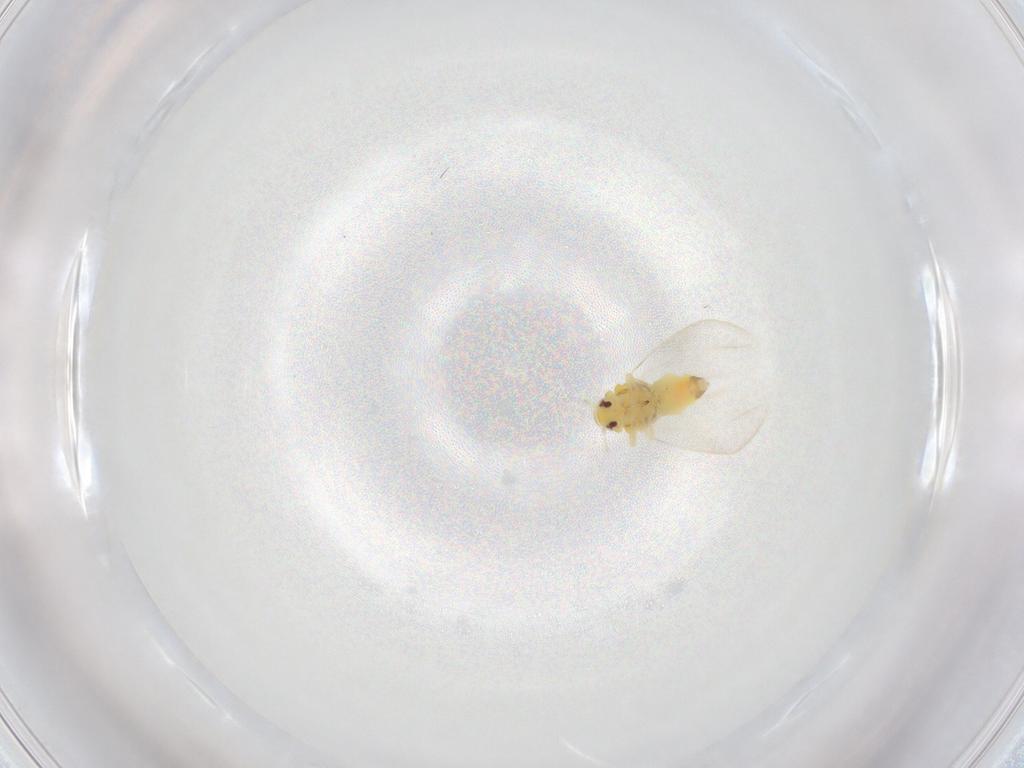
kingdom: Animalia
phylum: Arthropoda
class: Insecta
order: Hemiptera
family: Aleyrodidae
